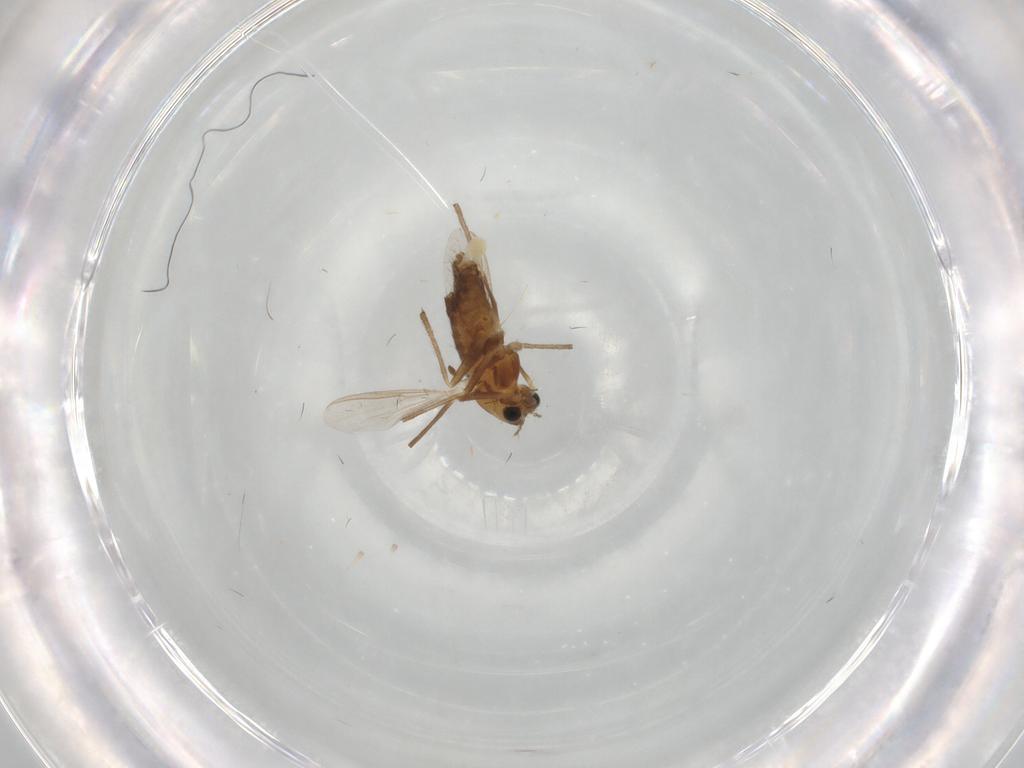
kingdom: Animalia
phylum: Arthropoda
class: Insecta
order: Diptera
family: Chironomidae
